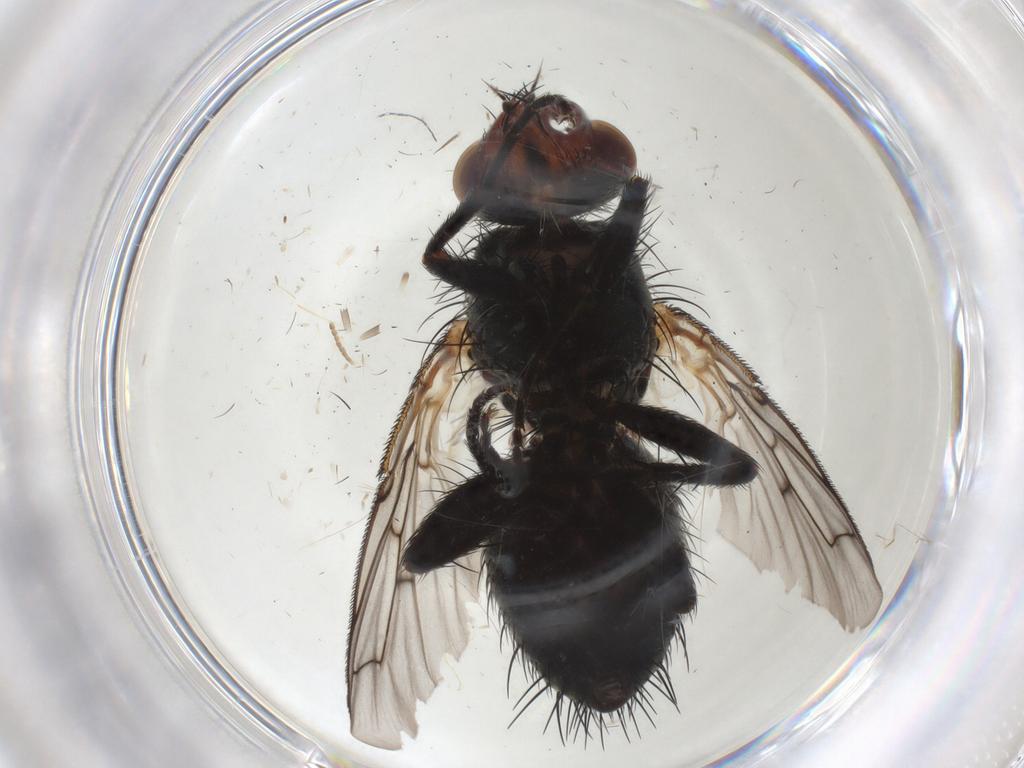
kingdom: Animalia
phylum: Arthropoda
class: Insecta
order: Diptera
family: Tachinidae
